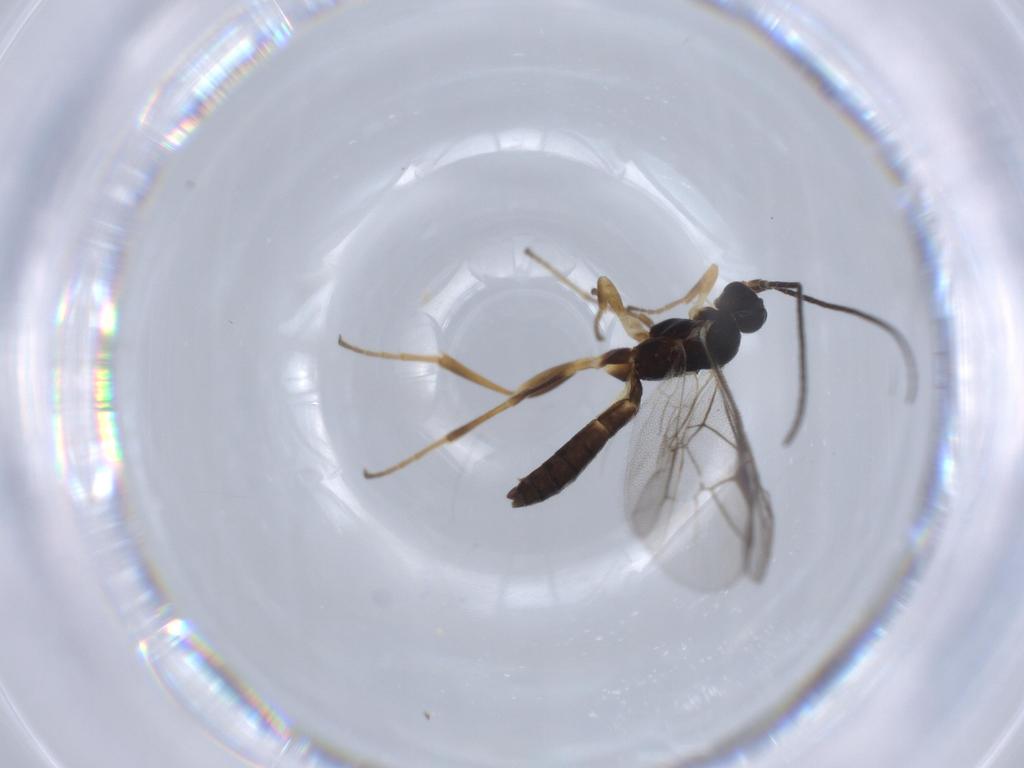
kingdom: Animalia
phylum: Arthropoda
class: Insecta
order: Hymenoptera
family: Ichneumonidae
